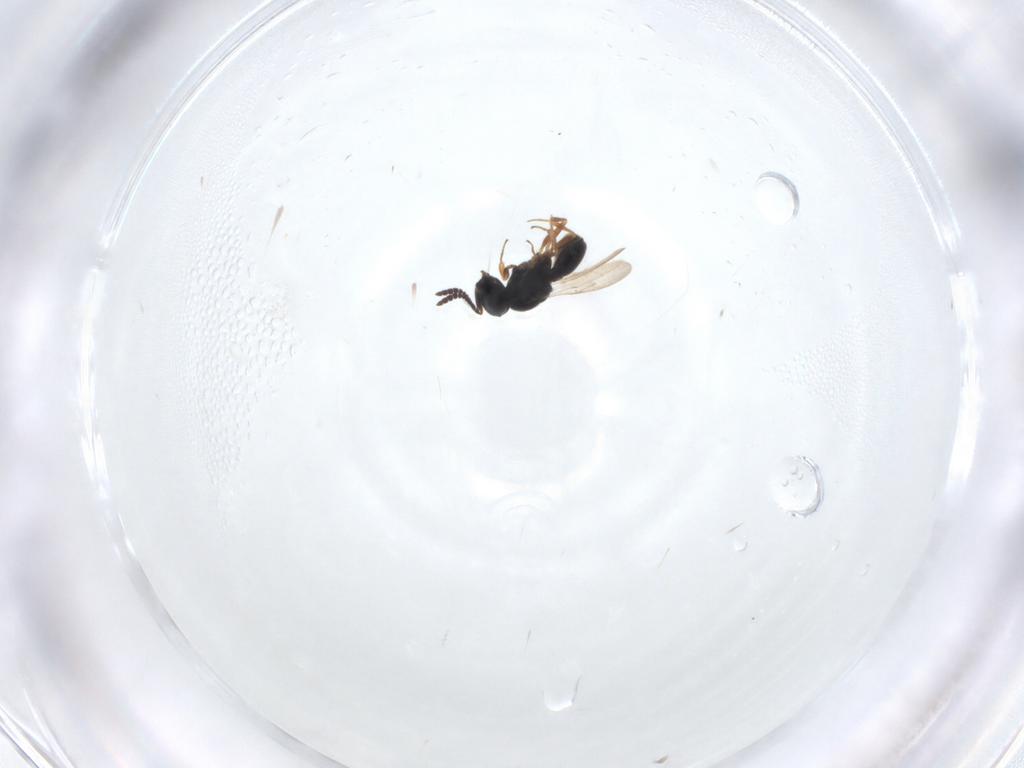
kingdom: Animalia
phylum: Arthropoda
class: Insecta
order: Hymenoptera
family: Scelionidae
